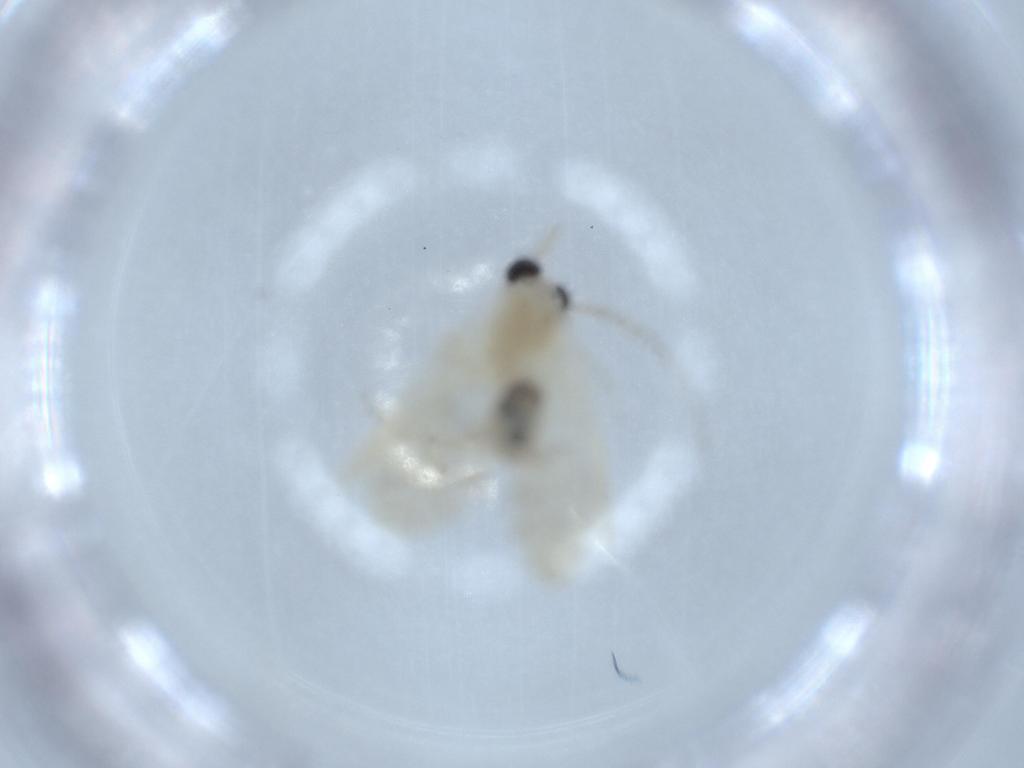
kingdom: Animalia
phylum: Arthropoda
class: Insecta
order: Psocodea
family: Caeciliusidae
